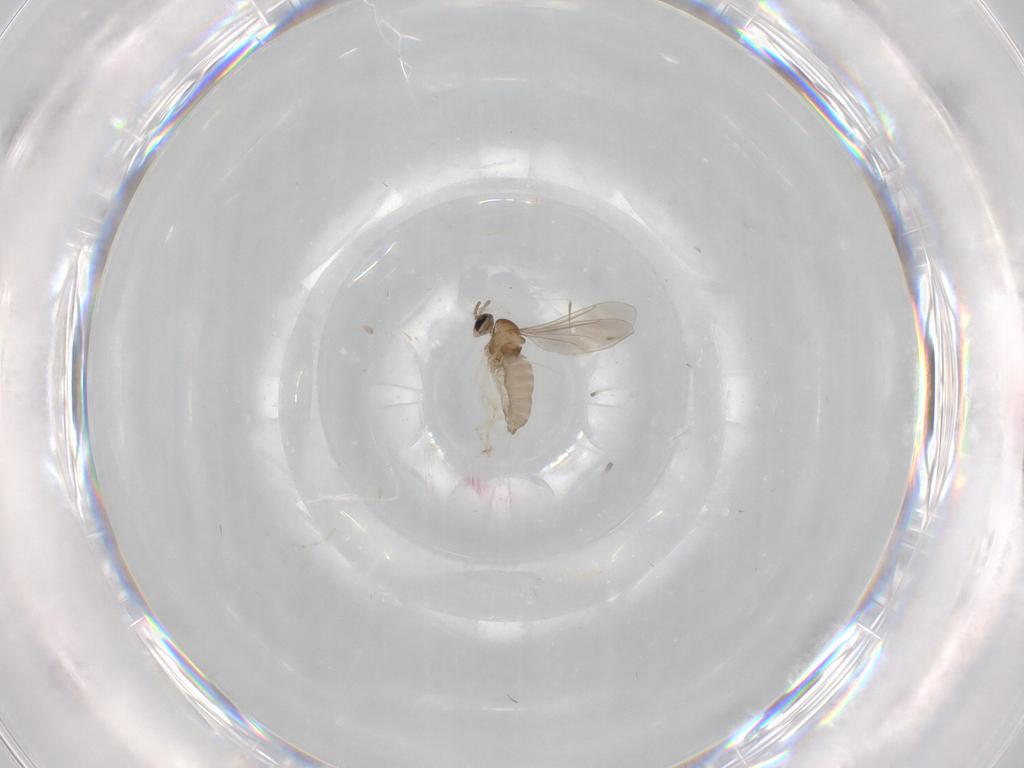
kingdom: Animalia
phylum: Arthropoda
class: Insecta
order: Diptera
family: Cecidomyiidae
